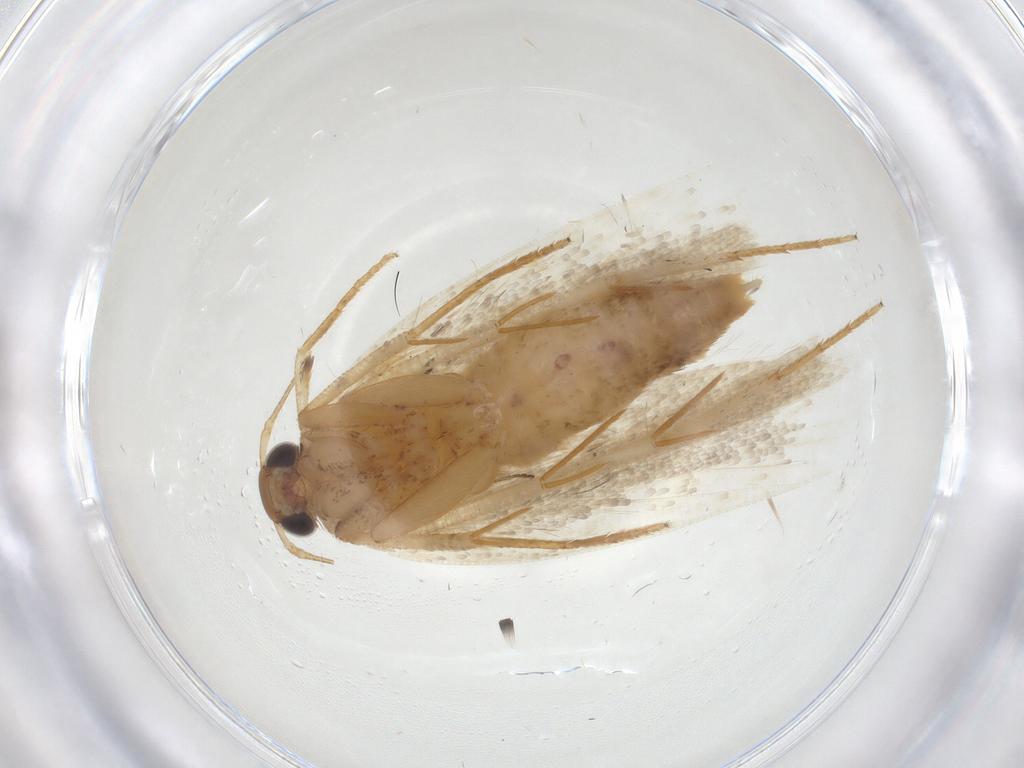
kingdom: Animalia
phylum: Arthropoda
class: Insecta
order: Lepidoptera
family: Gelechiidae
